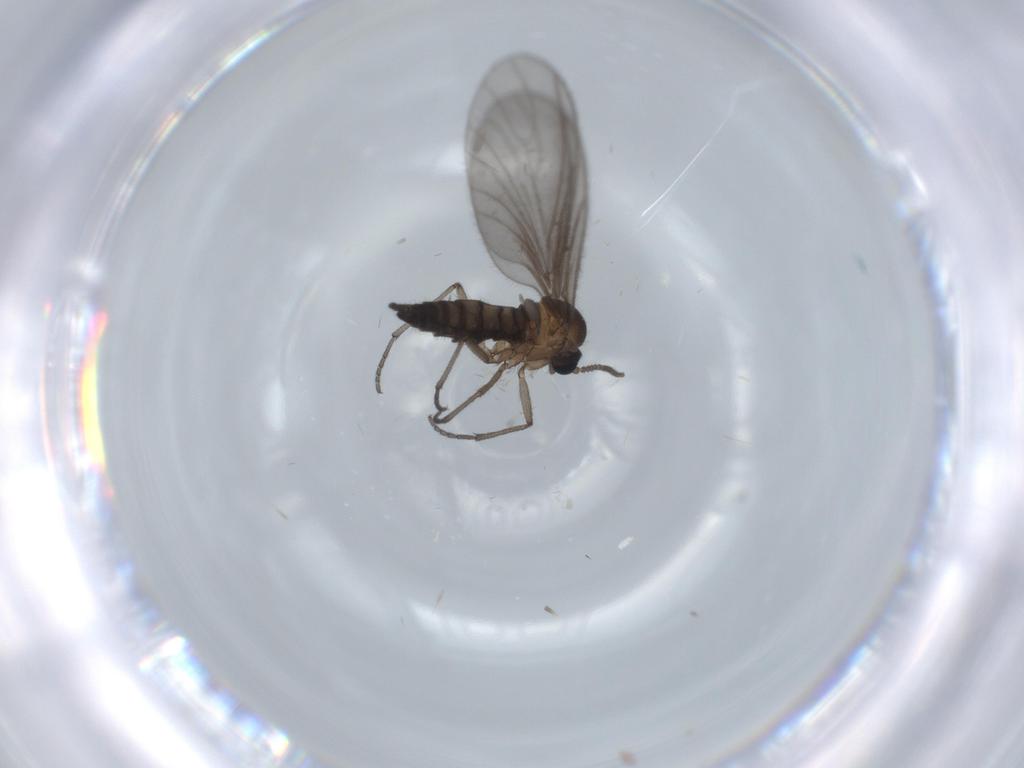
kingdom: Animalia
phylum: Arthropoda
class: Insecta
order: Diptera
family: Sciaridae
